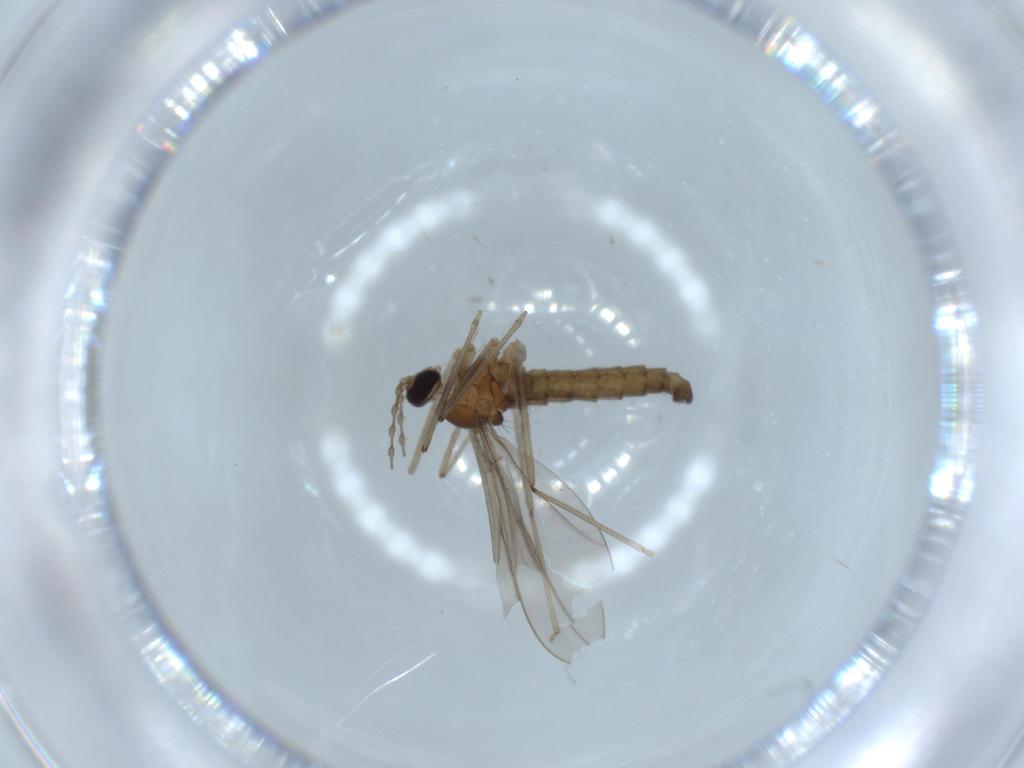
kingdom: Animalia
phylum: Arthropoda
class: Insecta
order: Diptera
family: Cecidomyiidae
